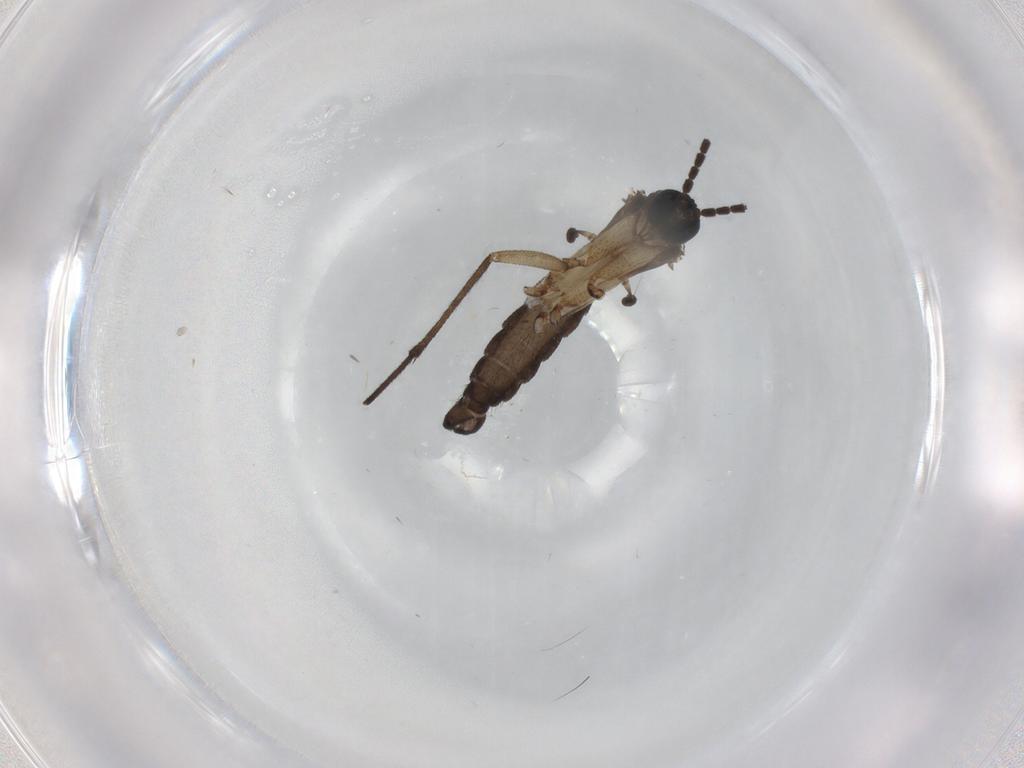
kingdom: Animalia
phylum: Arthropoda
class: Insecta
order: Diptera
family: Sciaridae
